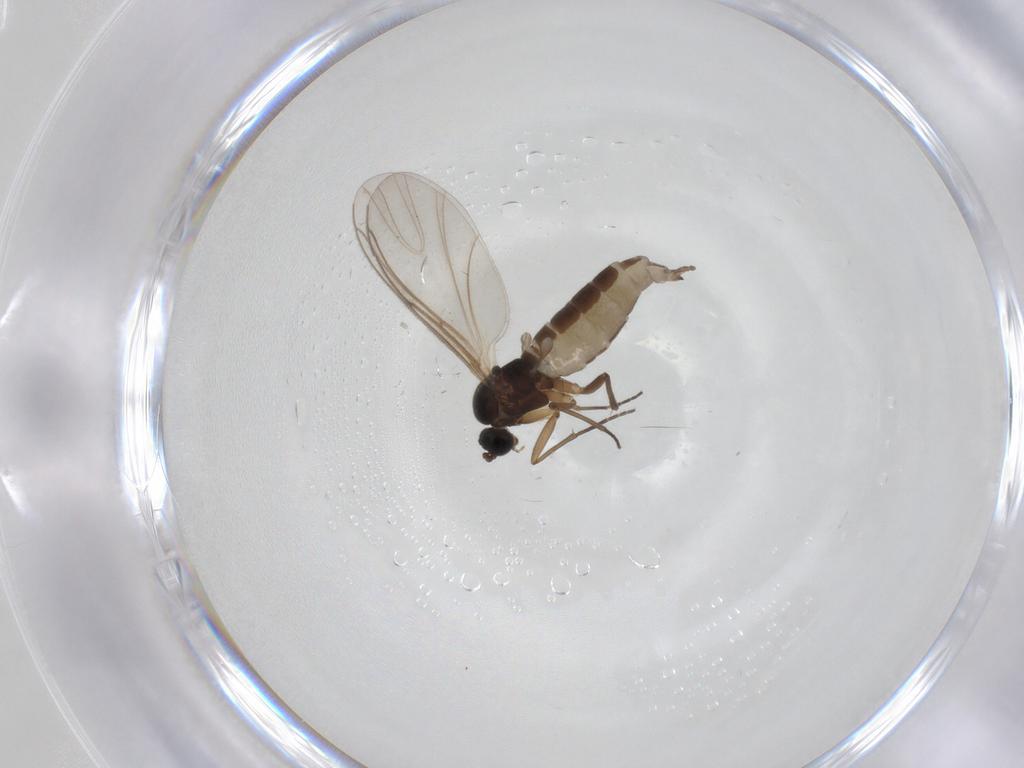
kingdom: Animalia
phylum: Arthropoda
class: Insecta
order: Diptera
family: Sciaridae
